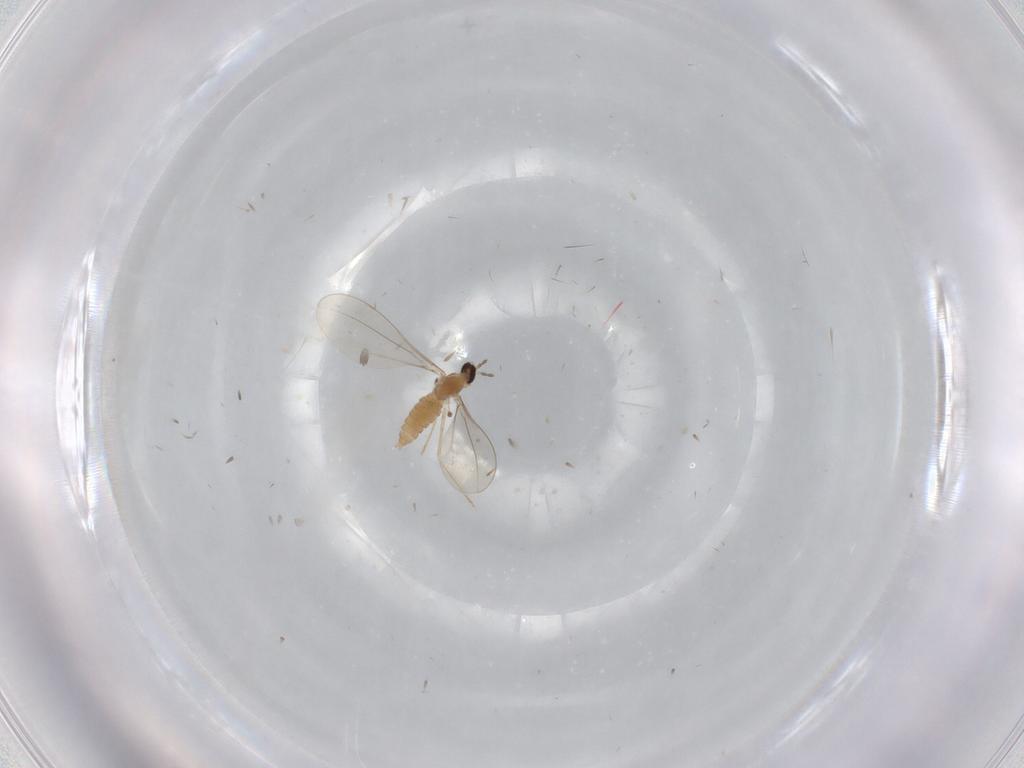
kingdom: Animalia
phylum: Arthropoda
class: Insecta
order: Diptera
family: Cecidomyiidae
